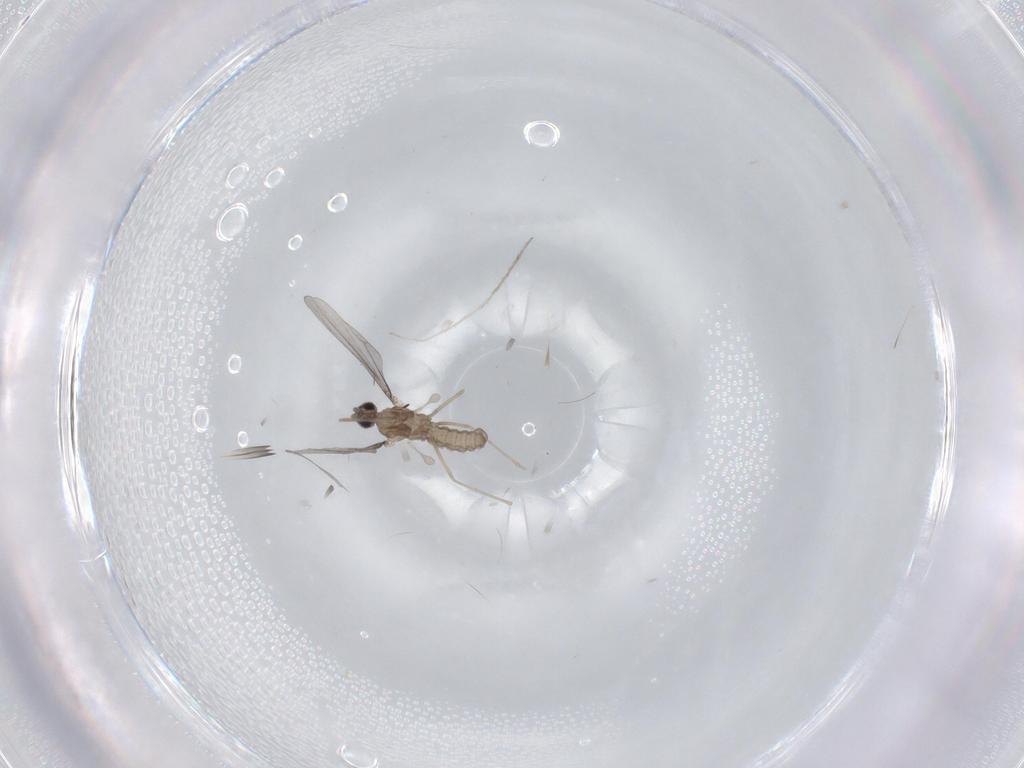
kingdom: Animalia
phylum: Arthropoda
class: Insecta
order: Diptera
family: Cecidomyiidae
